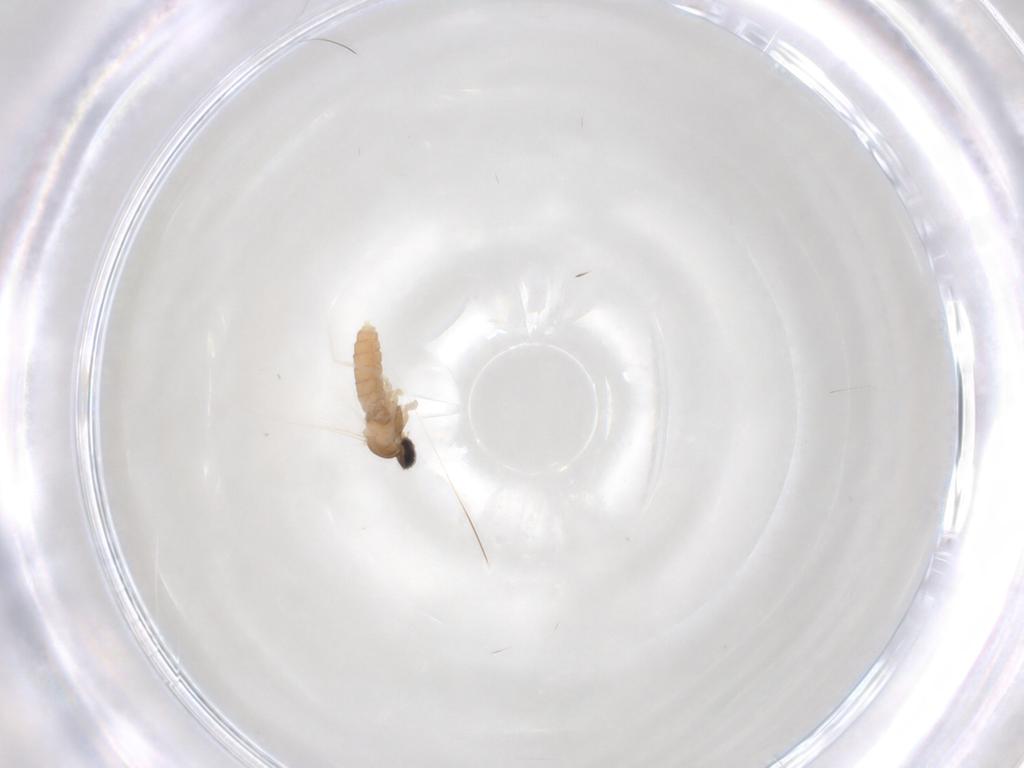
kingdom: Animalia
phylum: Arthropoda
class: Insecta
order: Diptera
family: Cecidomyiidae
